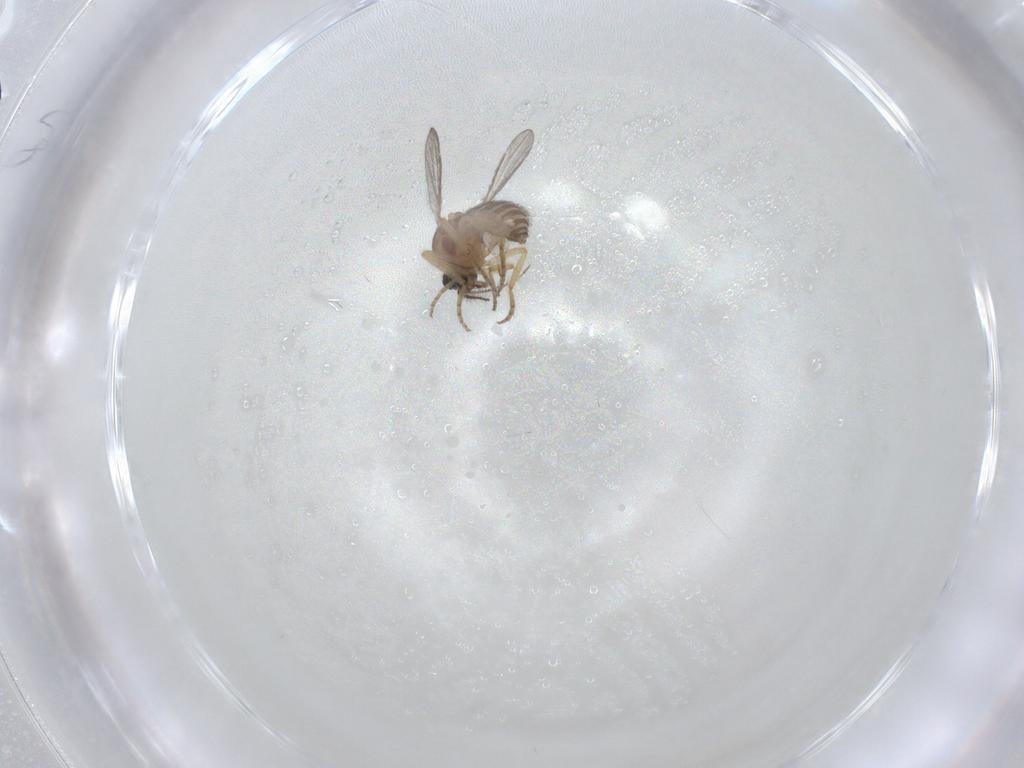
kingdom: Animalia
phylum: Arthropoda
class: Insecta
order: Diptera
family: Ceratopogonidae
